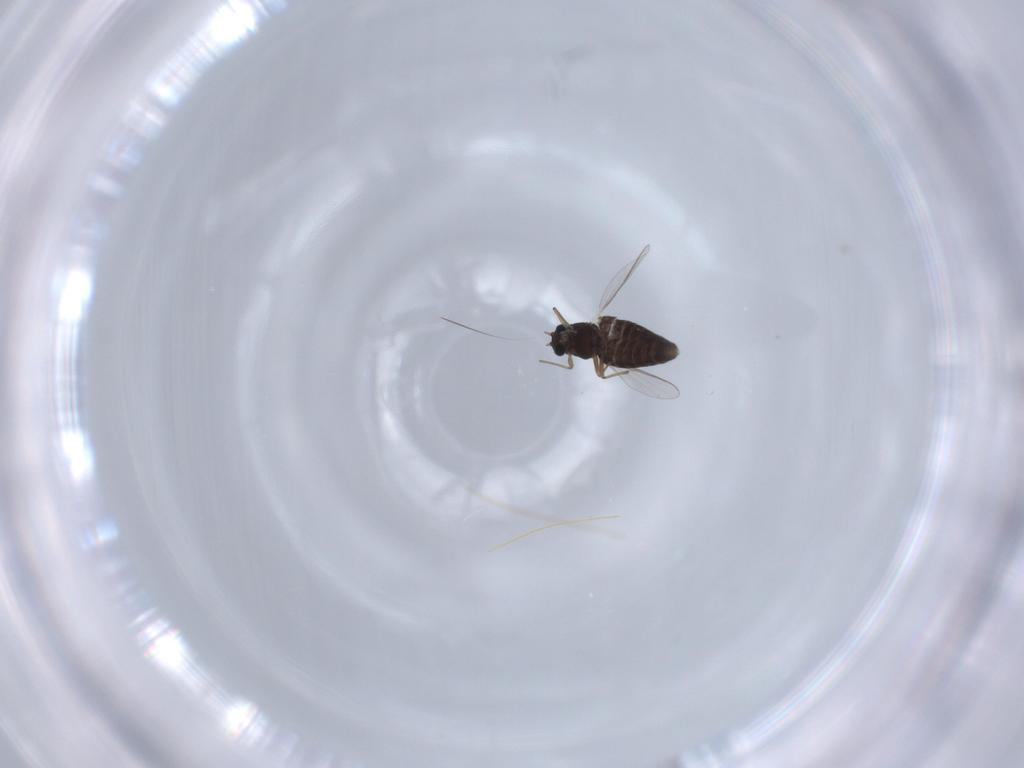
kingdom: Animalia
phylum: Arthropoda
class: Insecta
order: Diptera
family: Chironomidae
